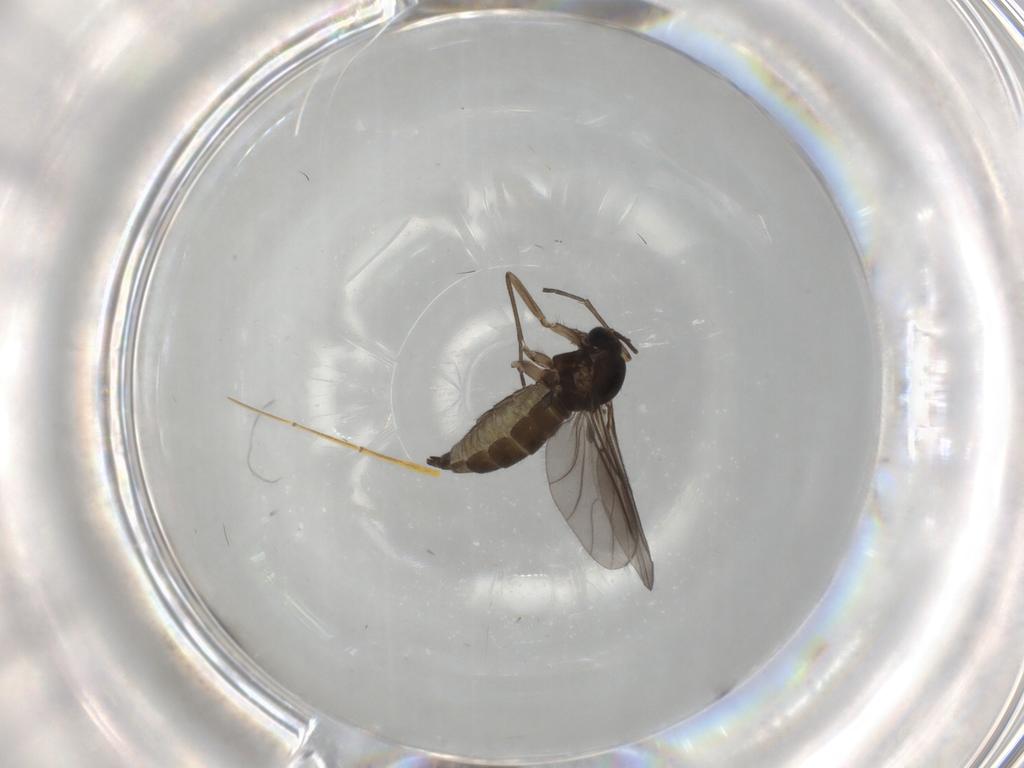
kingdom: Animalia
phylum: Arthropoda
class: Insecta
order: Diptera
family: Sciaridae
